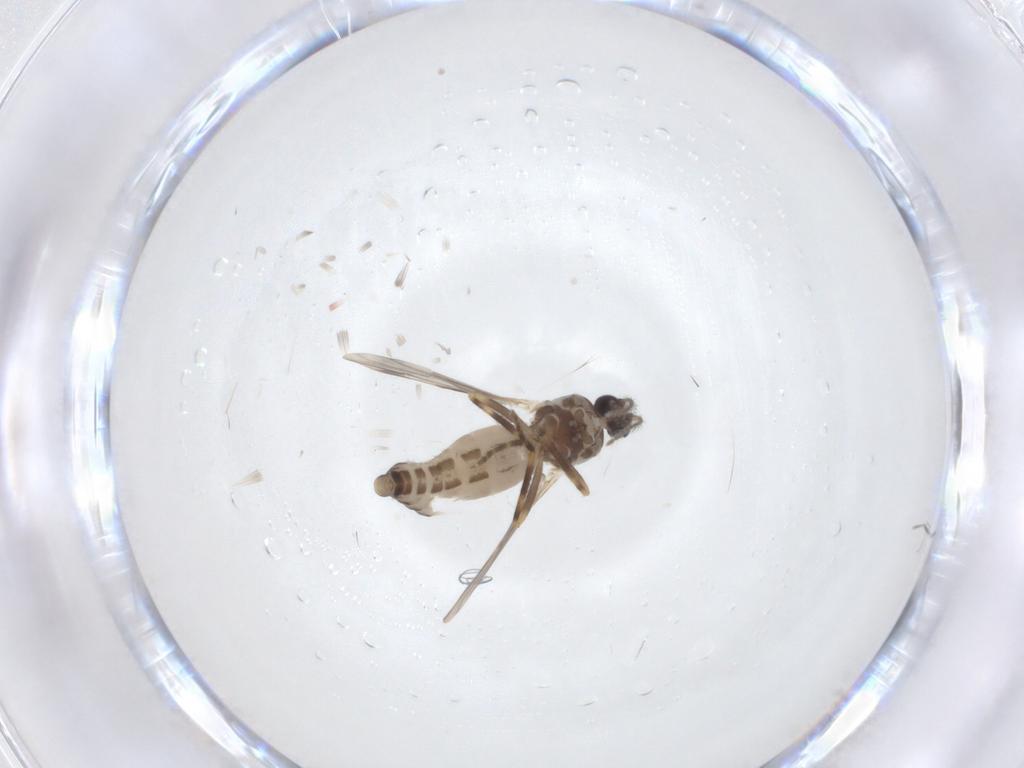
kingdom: Animalia
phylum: Arthropoda
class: Insecta
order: Diptera
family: Ceratopogonidae
